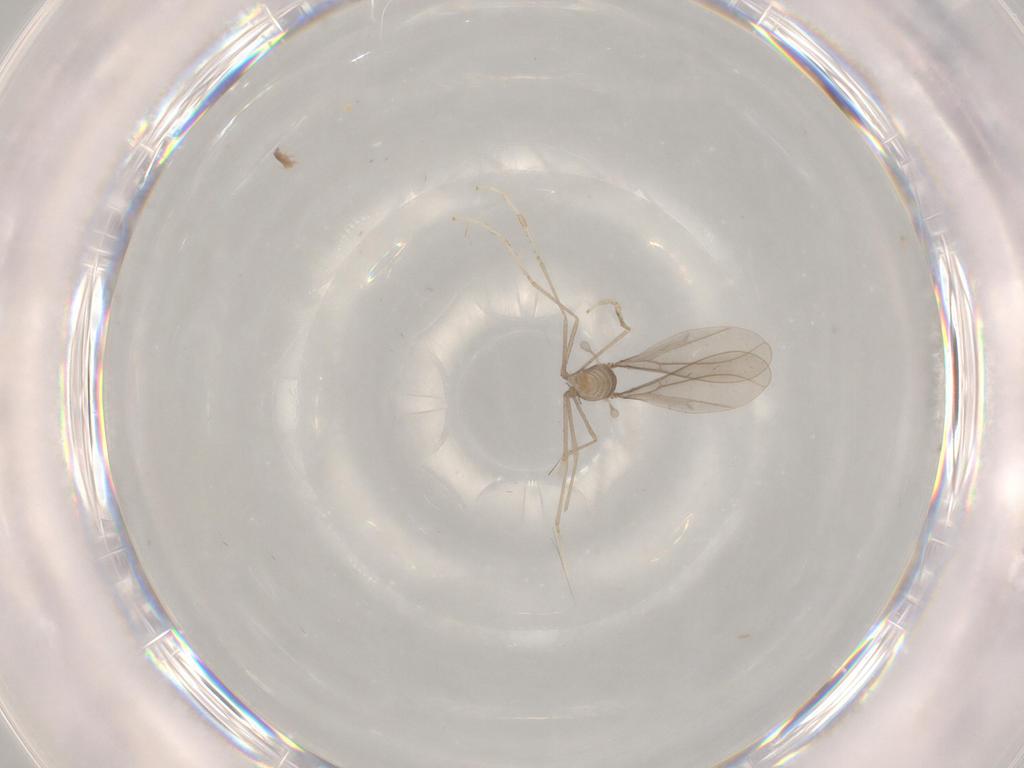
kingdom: Animalia
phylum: Arthropoda
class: Insecta
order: Diptera
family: Cecidomyiidae
